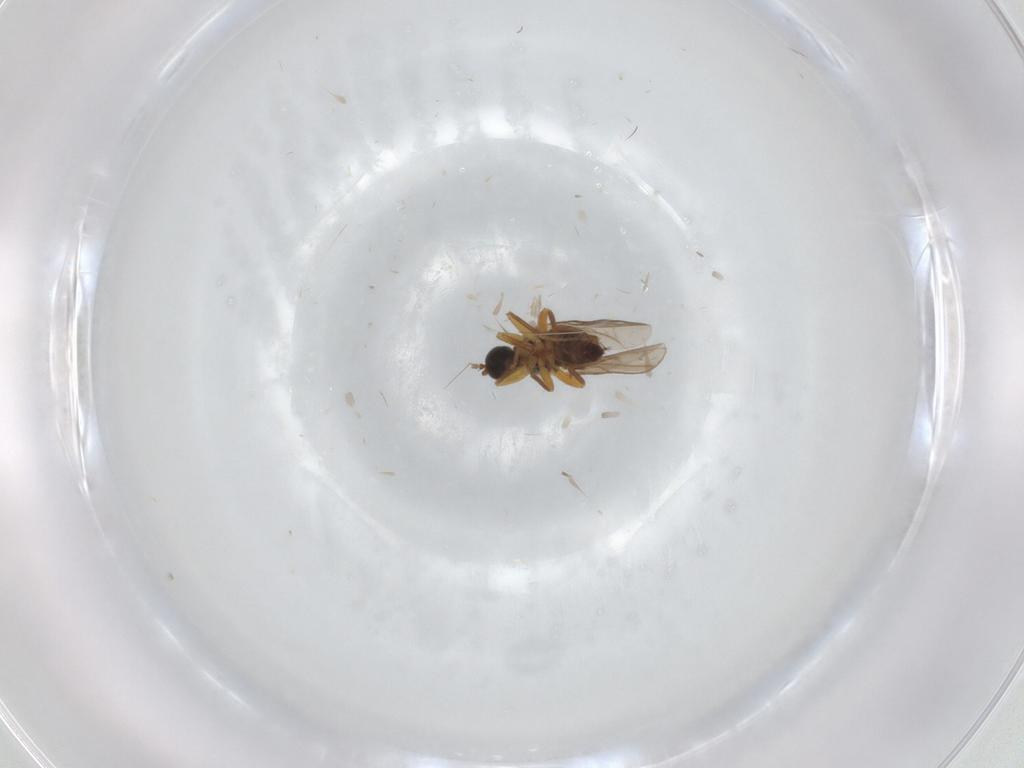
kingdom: Animalia
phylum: Arthropoda
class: Insecta
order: Diptera
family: Hybotidae
